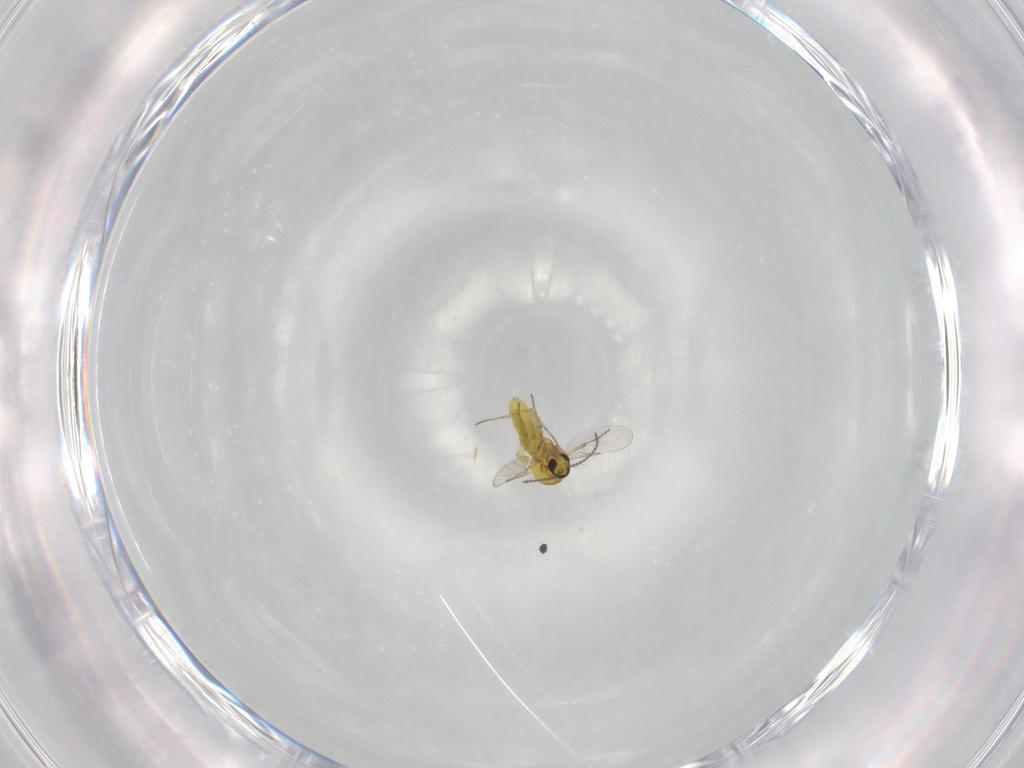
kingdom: Animalia
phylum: Arthropoda
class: Insecta
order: Diptera
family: Ceratopogonidae
